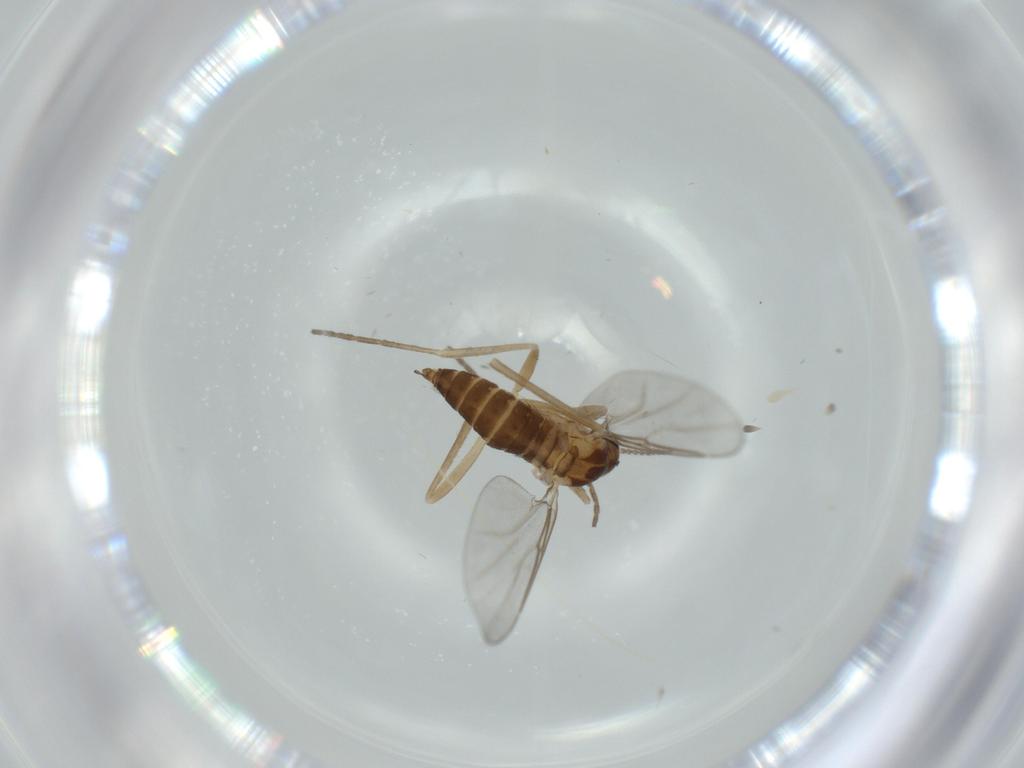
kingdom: Animalia
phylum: Arthropoda
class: Insecta
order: Diptera
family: Cecidomyiidae
